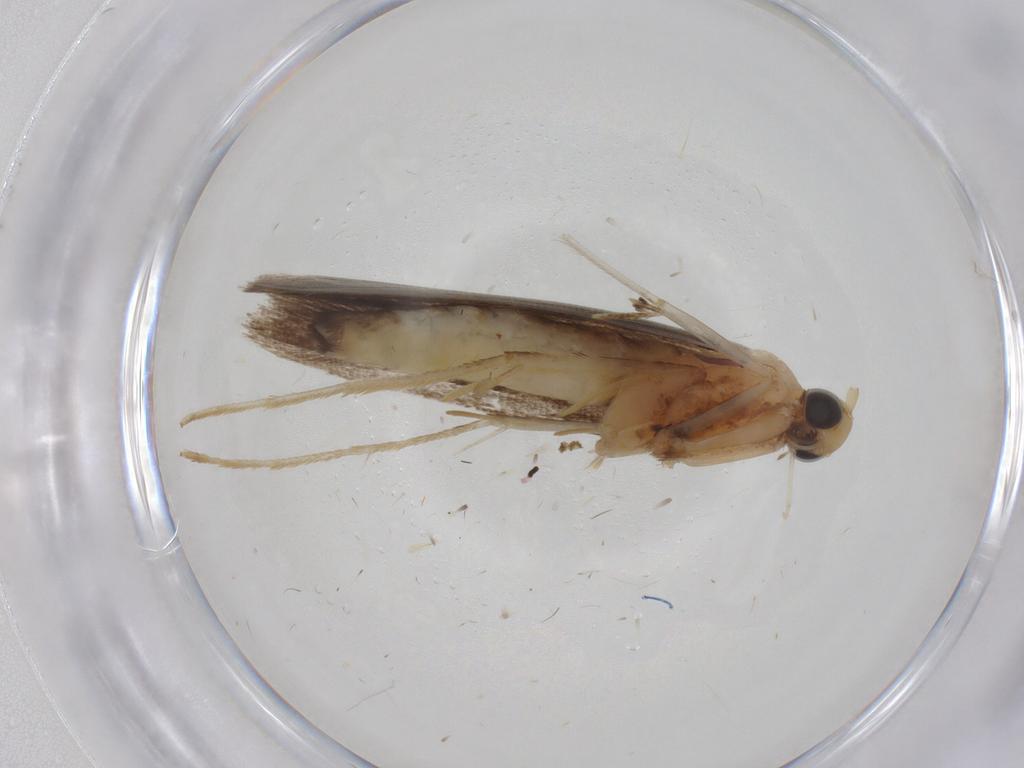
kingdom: Animalia
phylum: Arthropoda
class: Insecta
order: Lepidoptera
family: Gracillariidae
